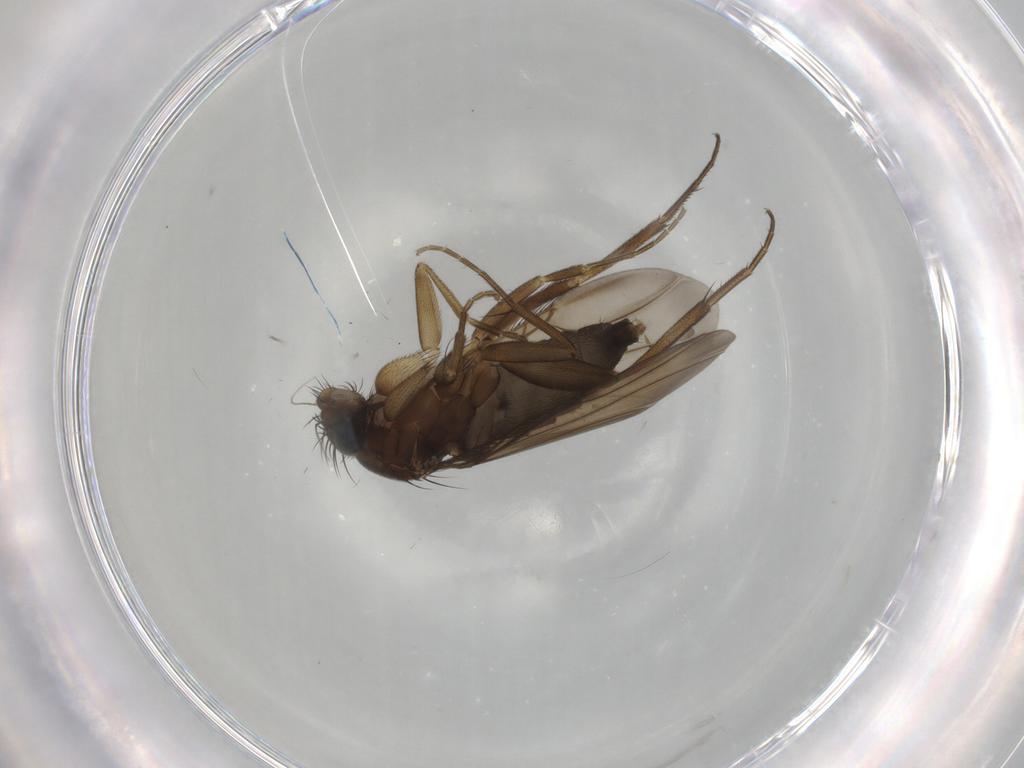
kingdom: Animalia
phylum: Arthropoda
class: Insecta
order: Diptera
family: Phoridae
